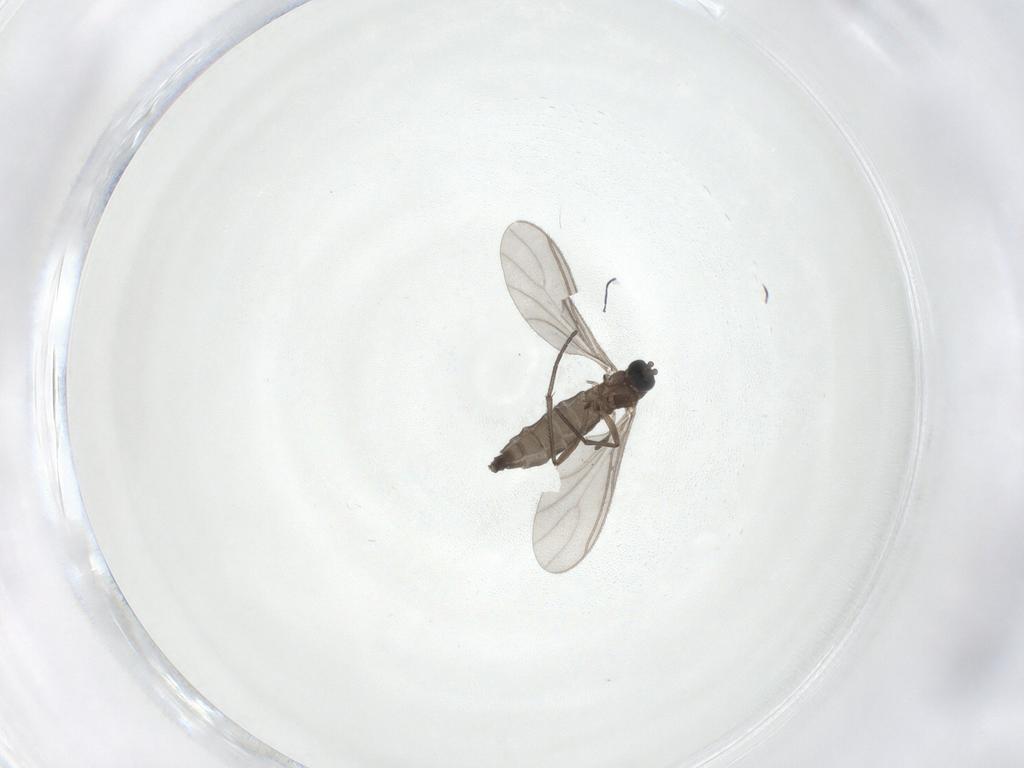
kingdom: Animalia
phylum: Arthropoda
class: Insecta
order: Diptera
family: Sciaridae
